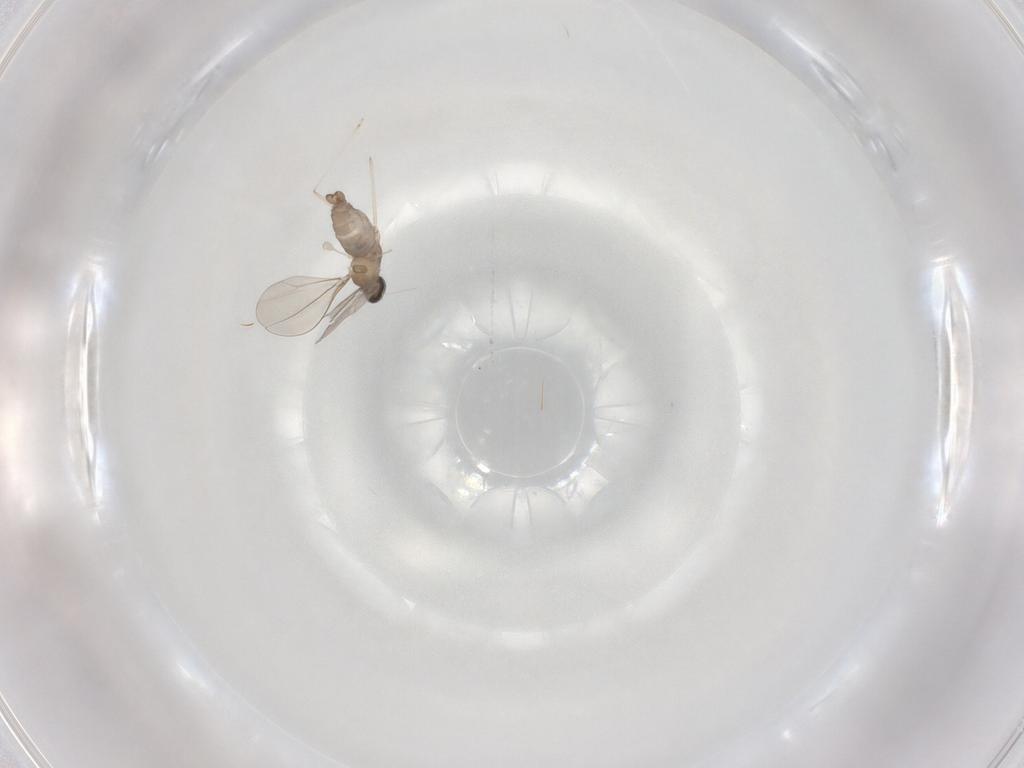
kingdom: Animalia
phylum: Arthropoda
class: Insecta
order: Diptera
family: Cecidomyiidae
